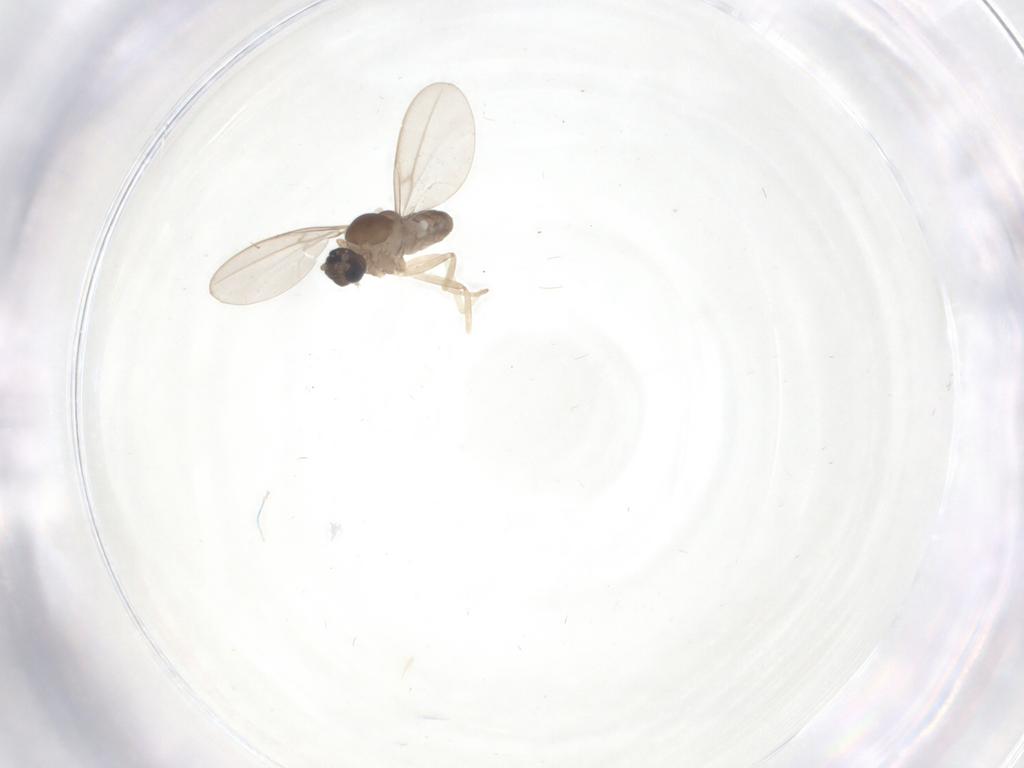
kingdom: Animalia
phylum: Arthropoda
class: Insecta
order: Diptera
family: Cecidomyiidae
